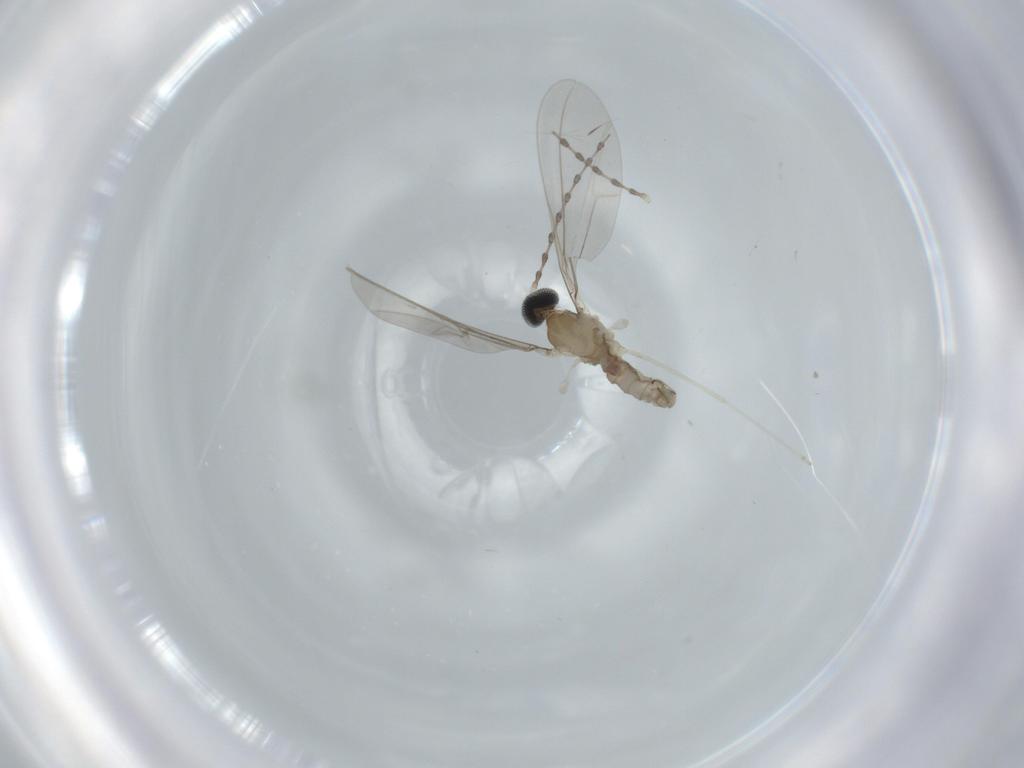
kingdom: Animalia
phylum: Arthropoda
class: Insecta
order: Diptera
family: Cecidomyiidae
